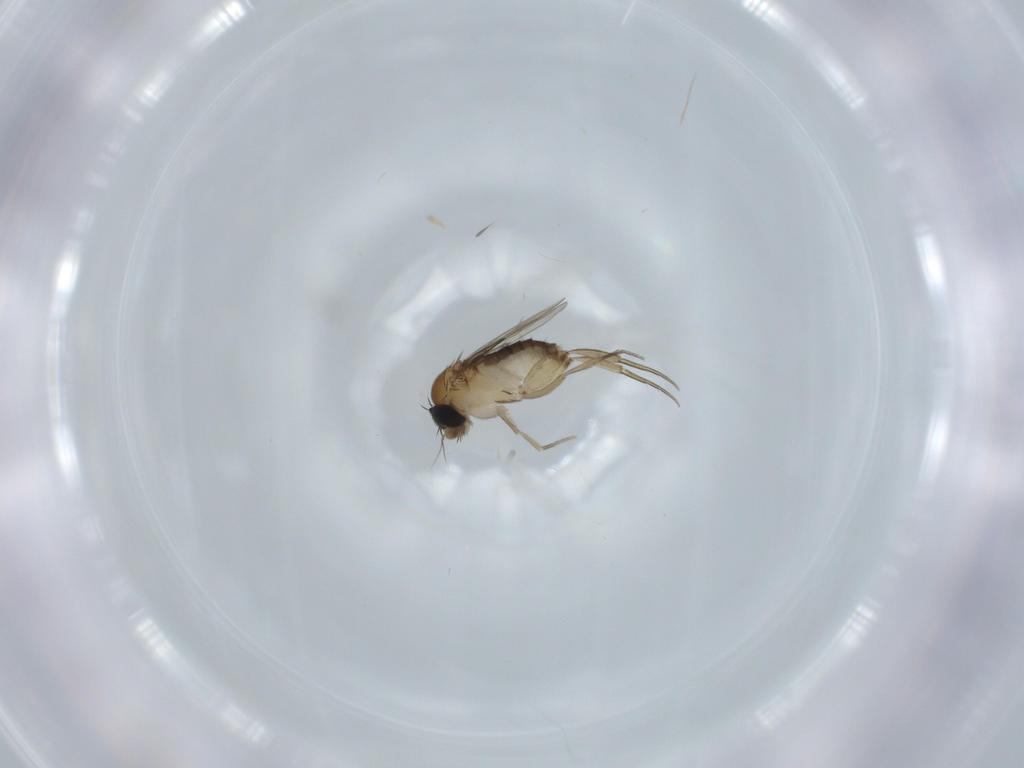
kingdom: Animalia
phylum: Arthropoda
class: Insecta
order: Diptera
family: Phoridae
